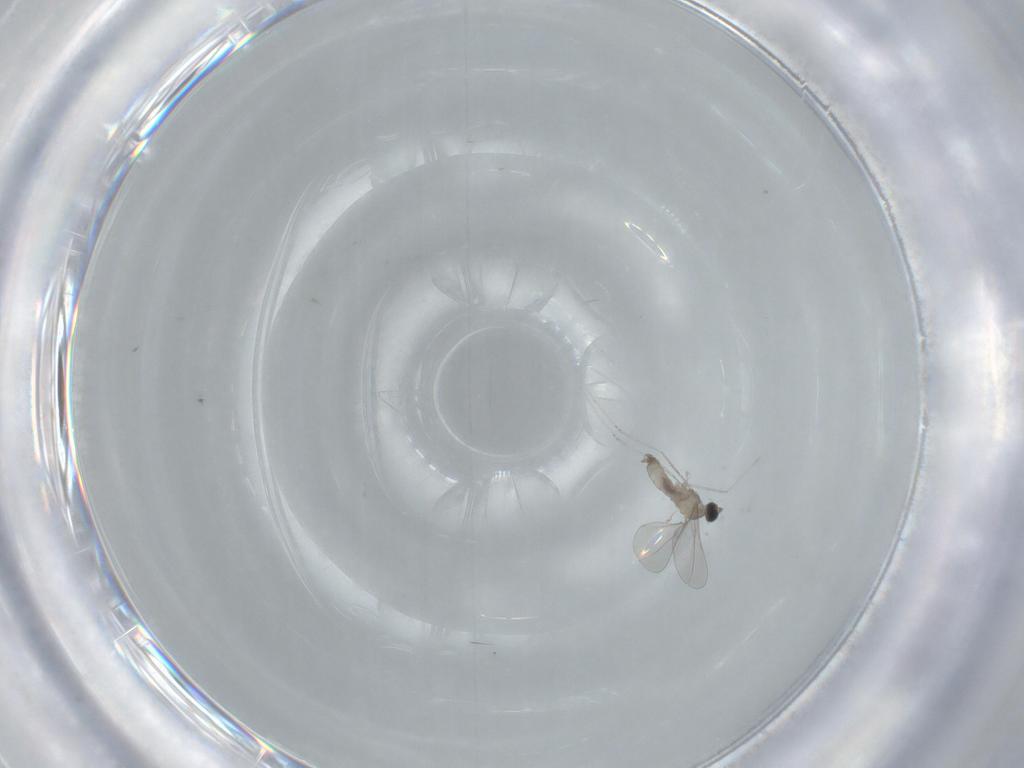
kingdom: Animalia
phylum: Arthropoda
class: Insecta
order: Diptera
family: Cecidomyiidae
